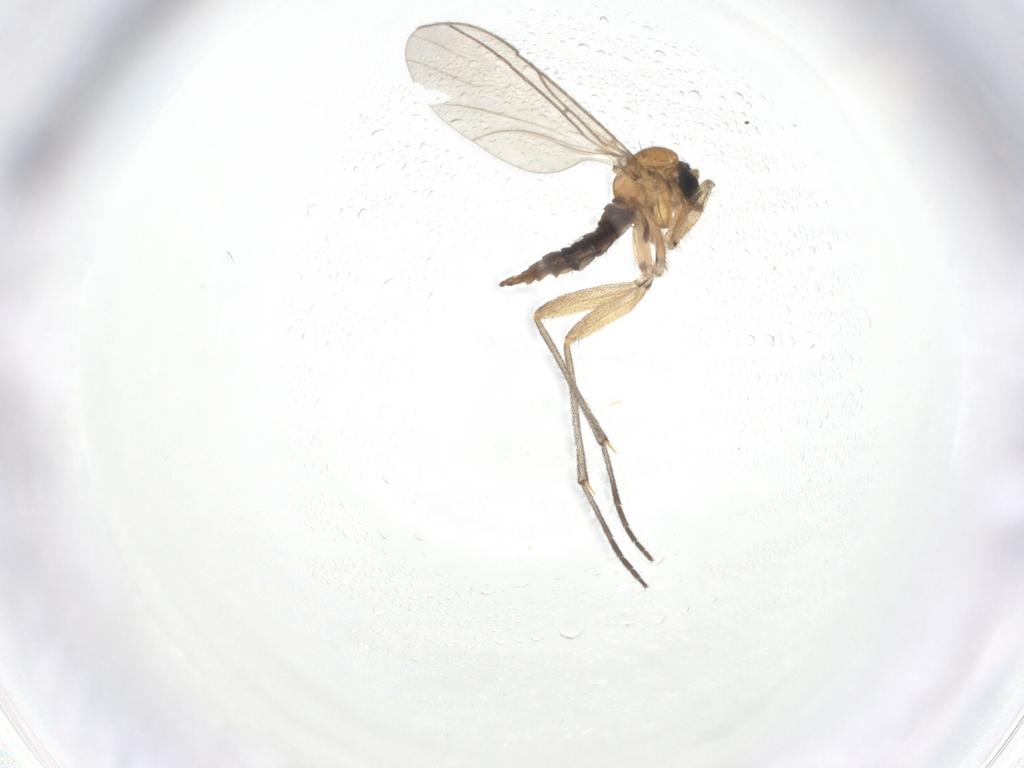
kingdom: Animalia
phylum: Arthropoda
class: Insecta
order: Diptera
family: Sciaridae
